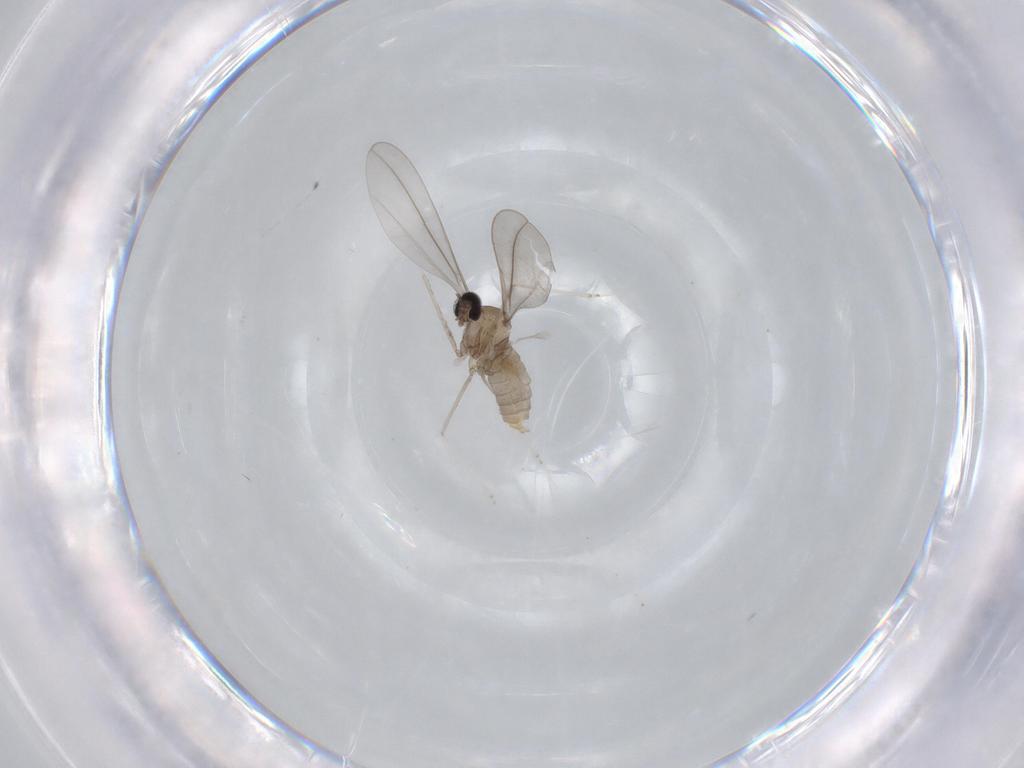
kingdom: Animalia
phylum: Arthropoda
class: Insecta
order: Diptera
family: Cecidomyiidae
